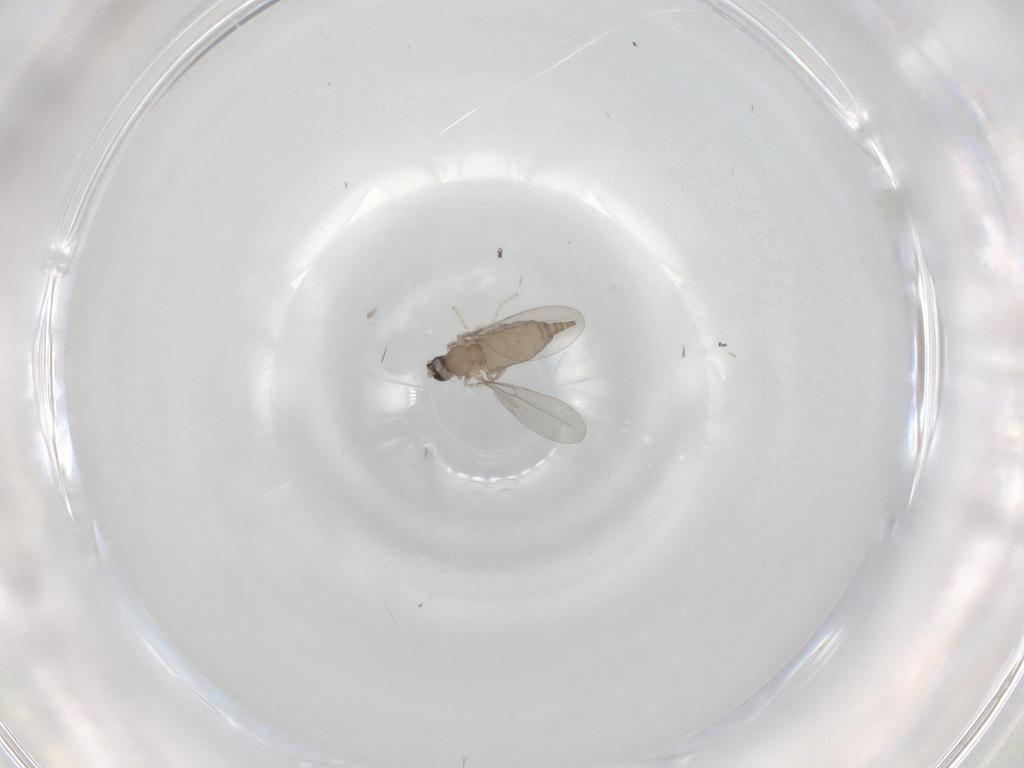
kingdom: Animalia
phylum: Arthropoda
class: Insecta
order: Diptera
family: Cecidomyiidae
